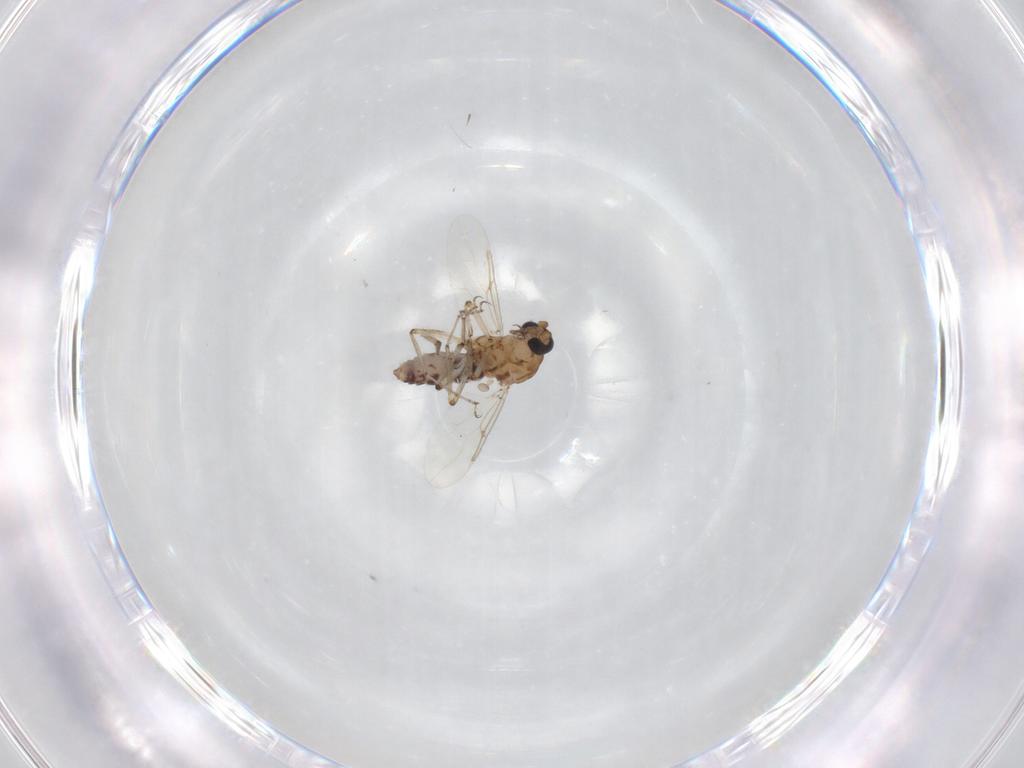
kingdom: Animalia
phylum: Arthropoda
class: Insecta
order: Diptera
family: Ceratopogonidae
